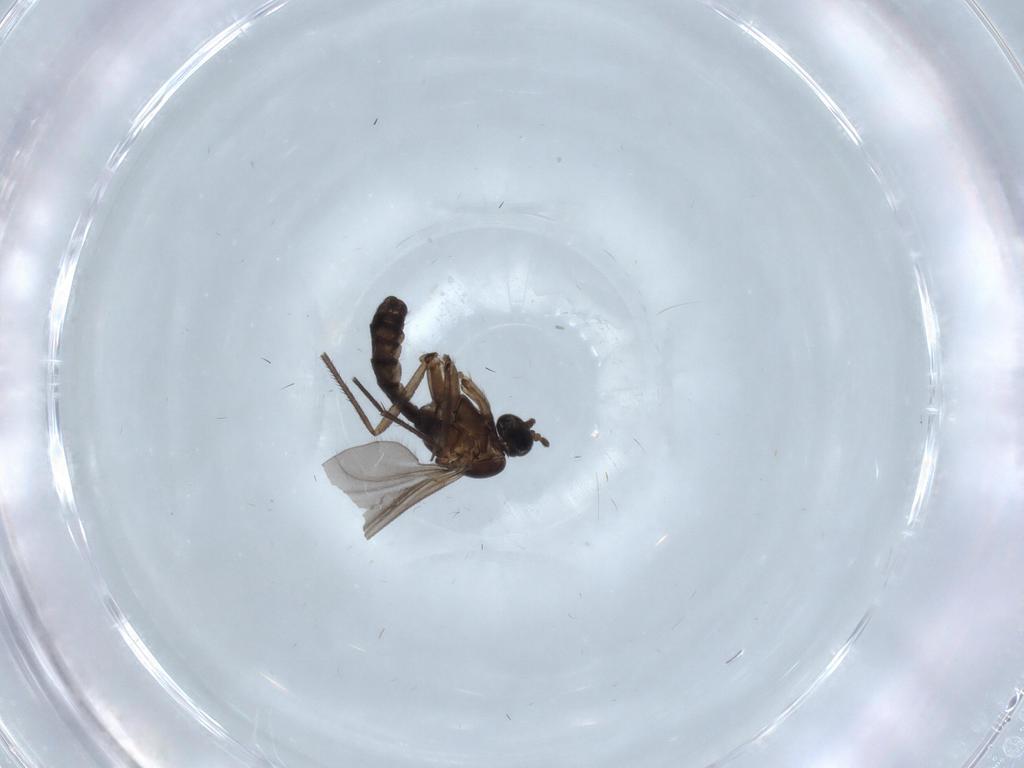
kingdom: Animalia
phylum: Arthropoda
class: Insecta
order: Diptera
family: Sciaridae
